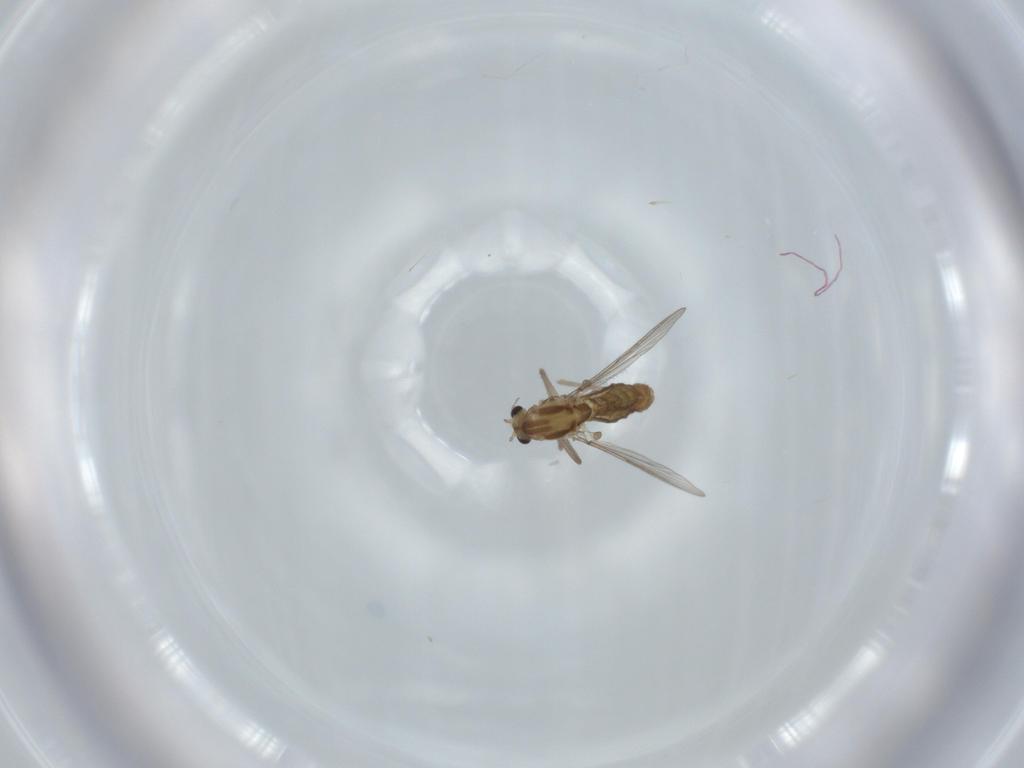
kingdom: Animalia
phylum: Arthropoda
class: Insecta
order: Diptera
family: Chironomidae
